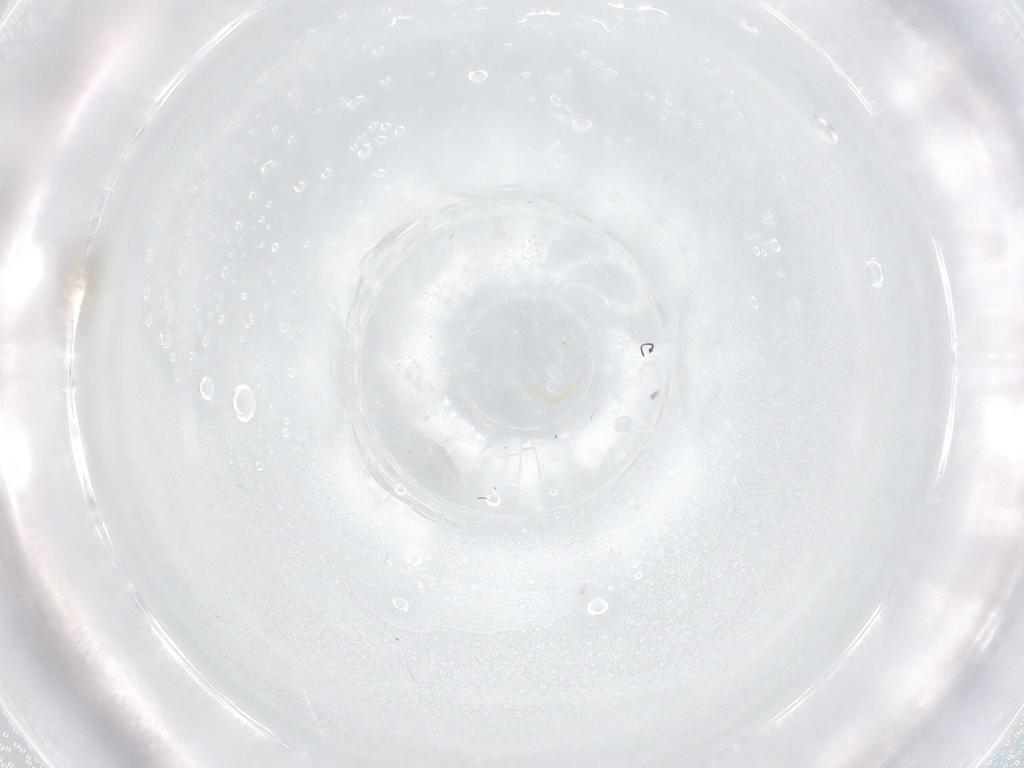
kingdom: Animalia
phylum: Arthropoda
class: Insecta
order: Diptera
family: Cecidomyiidae
